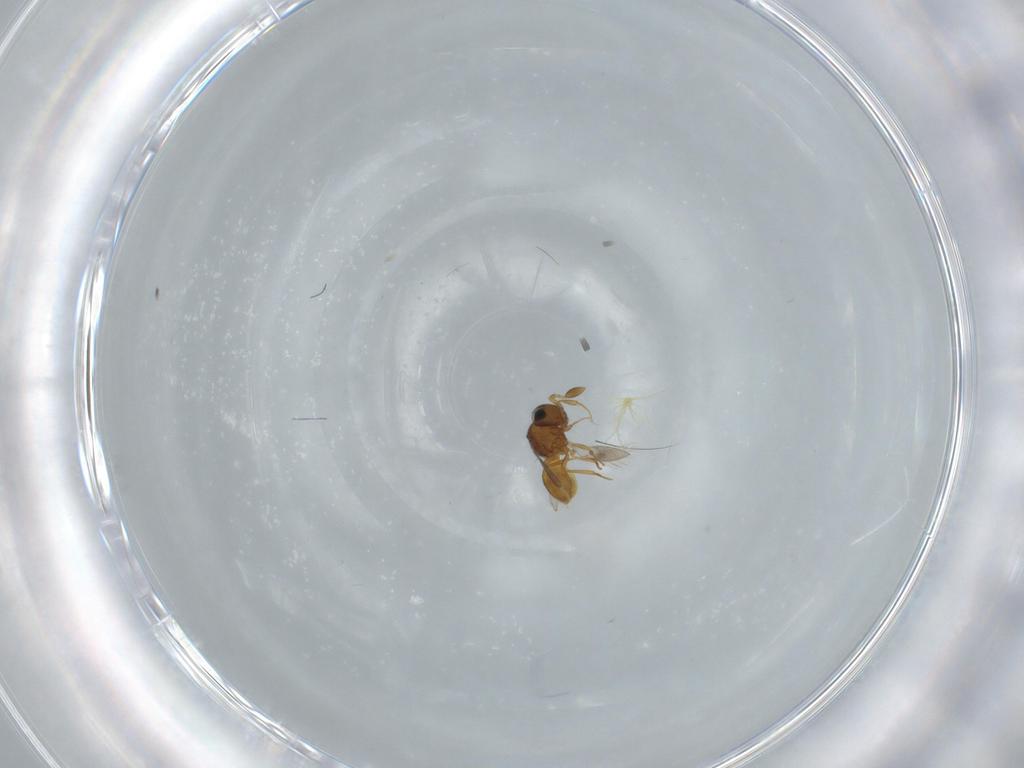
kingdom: Animalia
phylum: Arthropoda
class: Insecta
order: Hymenoptera
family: Scelionidae
